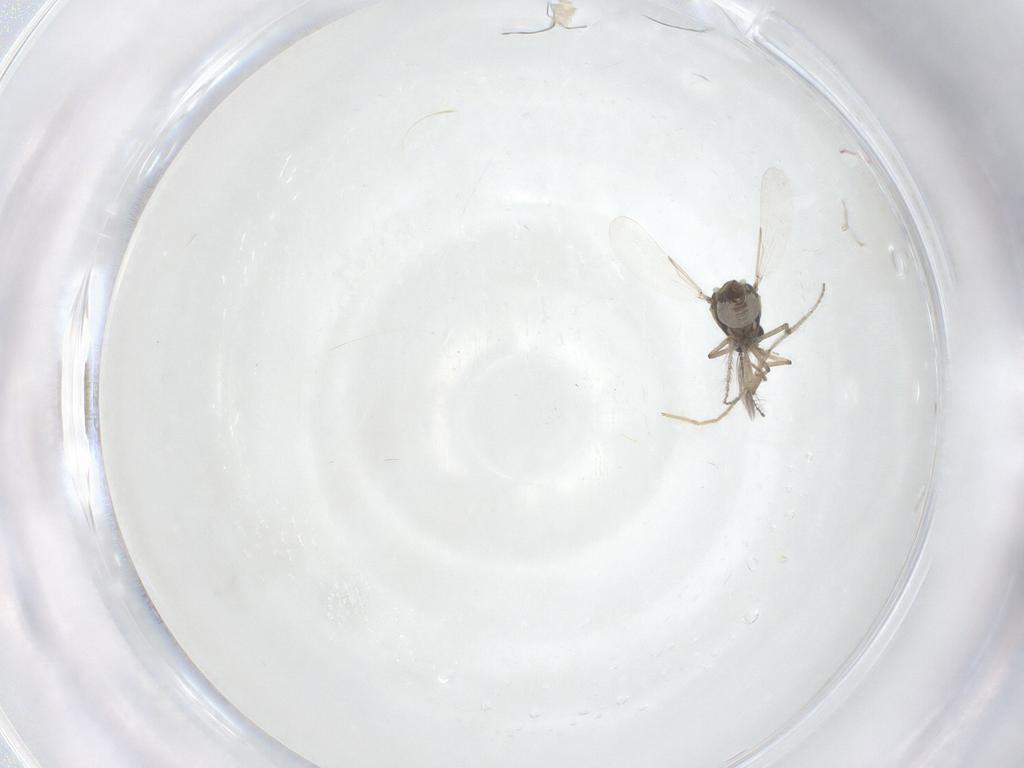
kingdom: Animalia
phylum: Arthropoda
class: Insecta
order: Diptera
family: Ceratopogonidae
